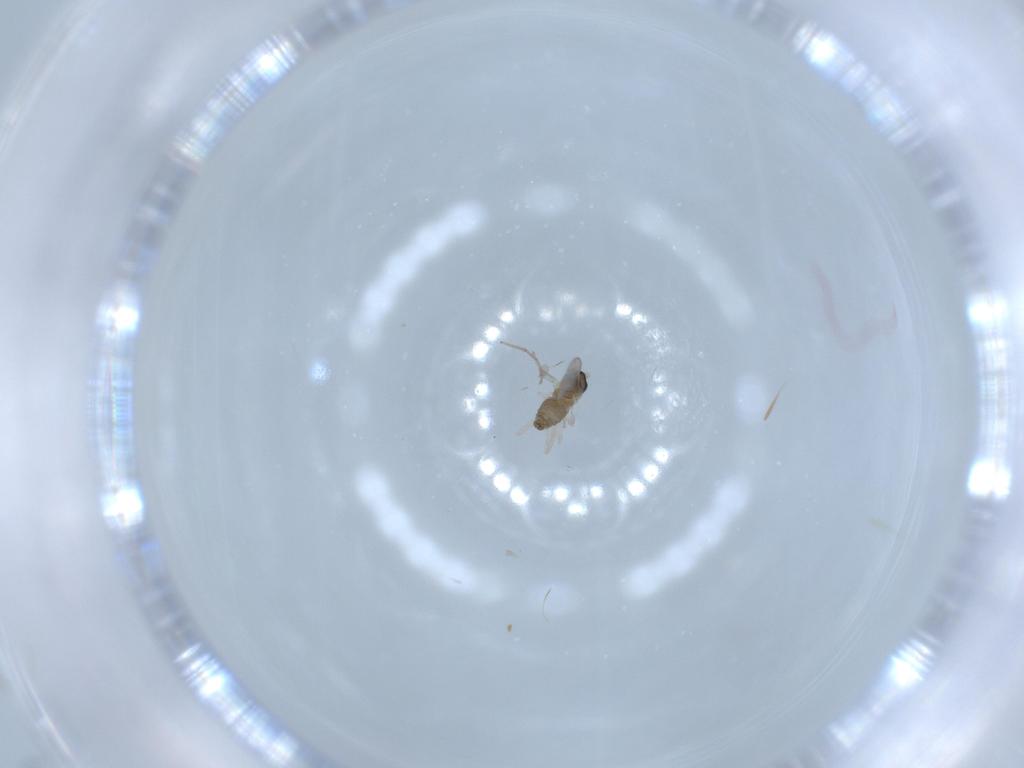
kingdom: Animalia
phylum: Arthropoda
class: Insecta
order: Diptera
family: Cecidomyiidae
